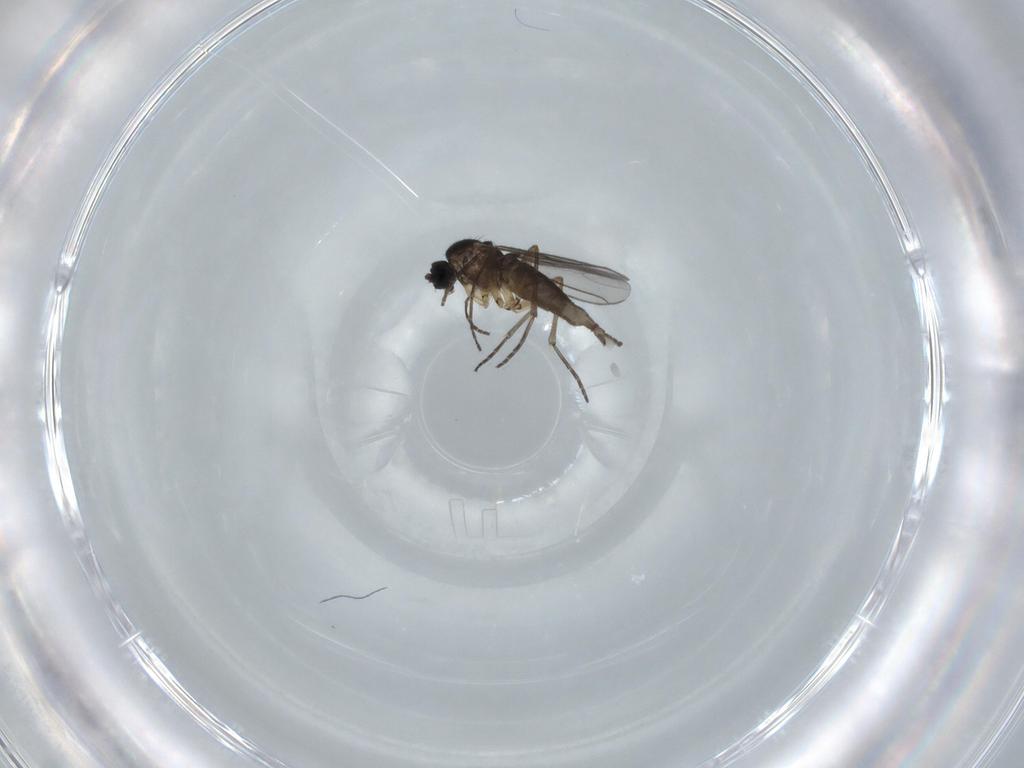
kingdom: Animalia
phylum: Arthropoda
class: Insecta
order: Diptera
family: Sciaridae
